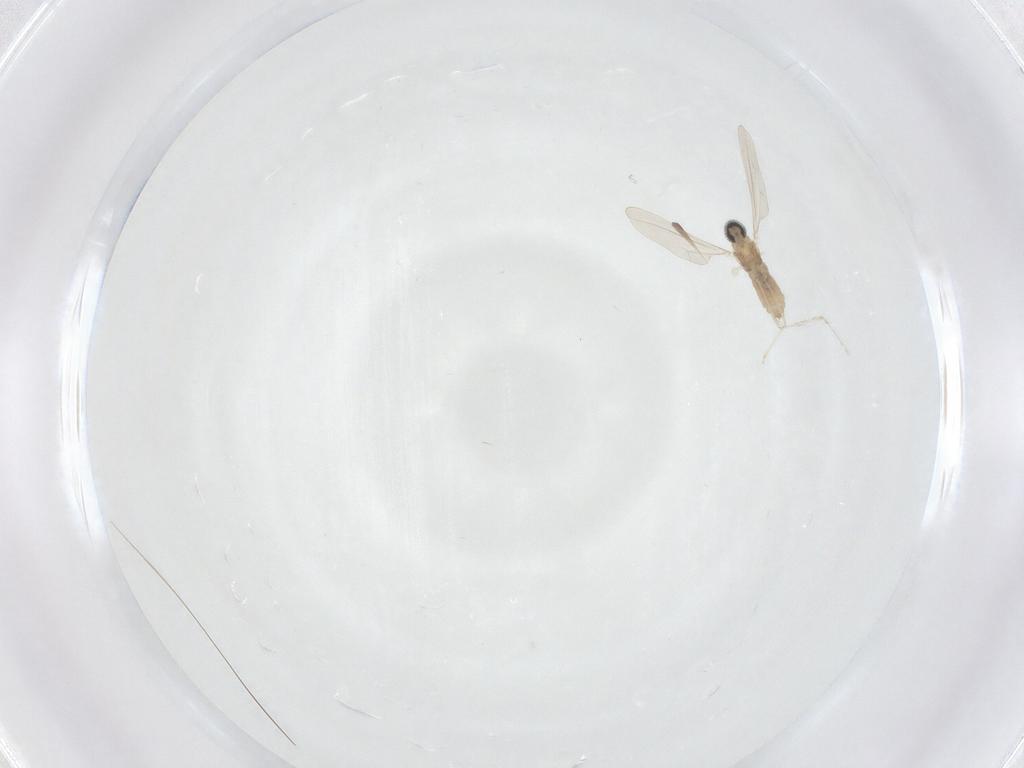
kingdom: Animalia
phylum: Arthropoda
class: Insecta
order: Diptera
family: Cecidomyiidae
